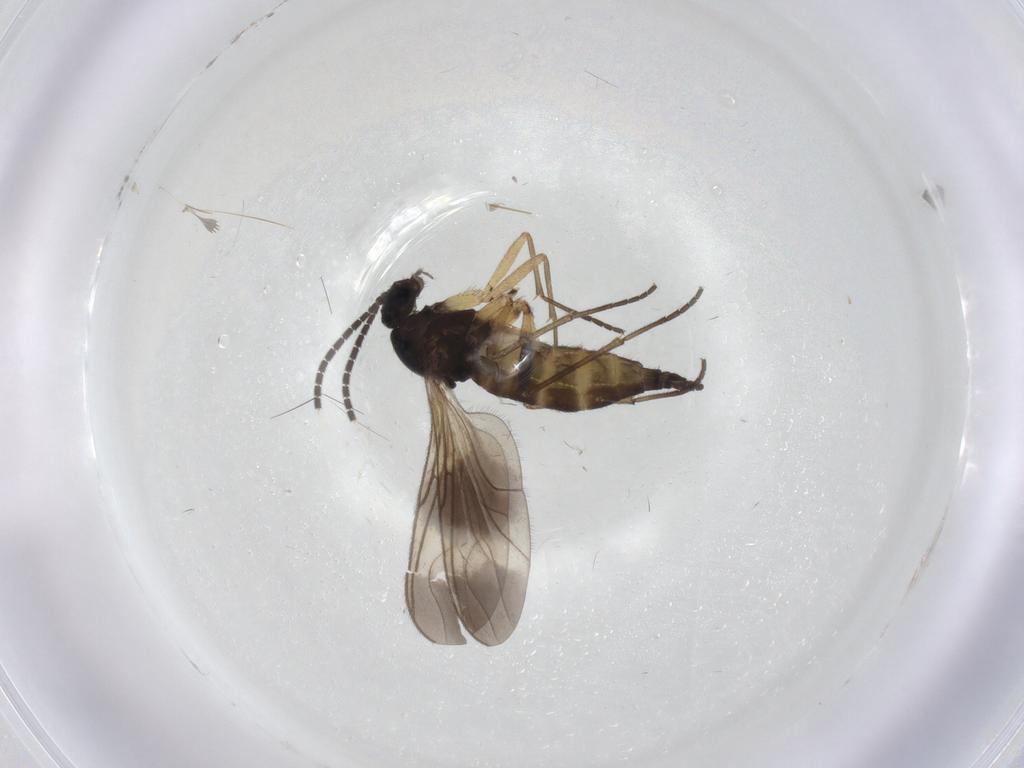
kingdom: Animalia
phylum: Arthropoda
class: Insecta
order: Diptera
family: Sciaridae
